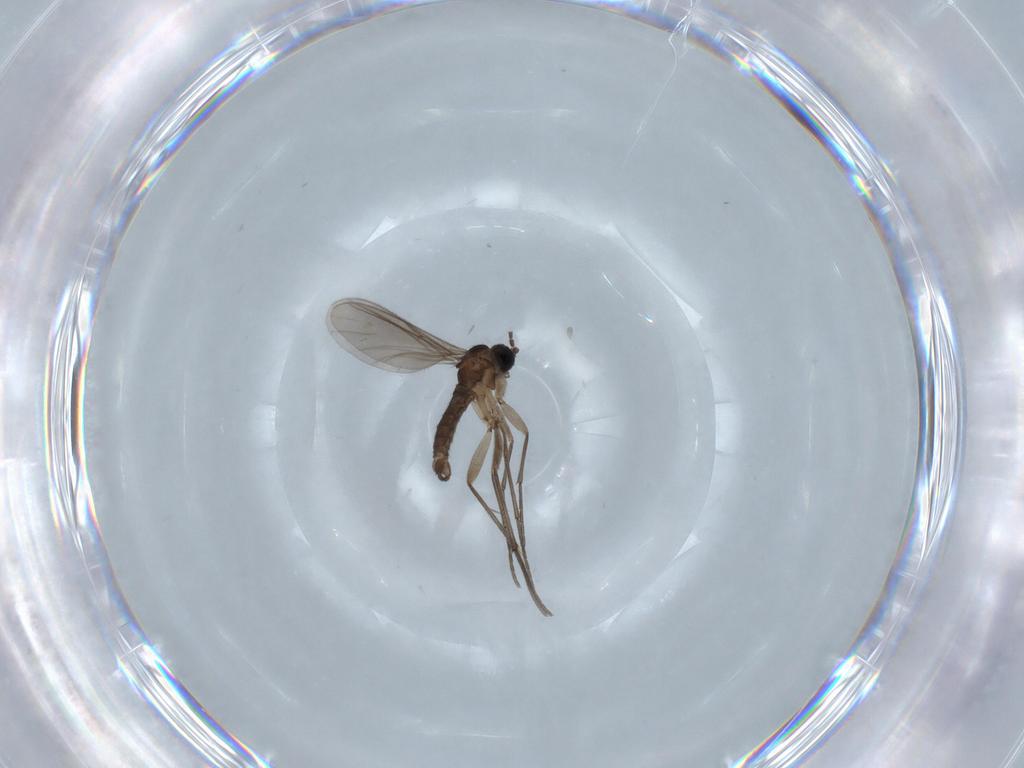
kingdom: Animalia
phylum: Arthropoda
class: Insecta
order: Diptera
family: Sciaridae
